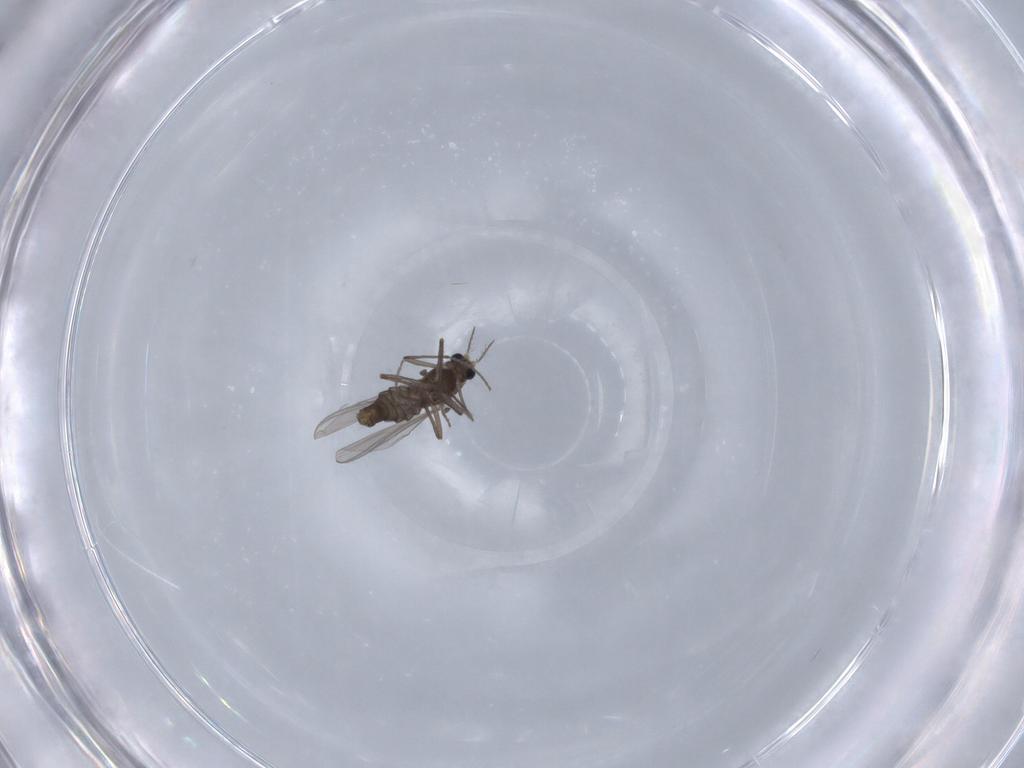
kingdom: Animalia
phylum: Arthropoda
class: Insecta
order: Diptera
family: Chironomidae
